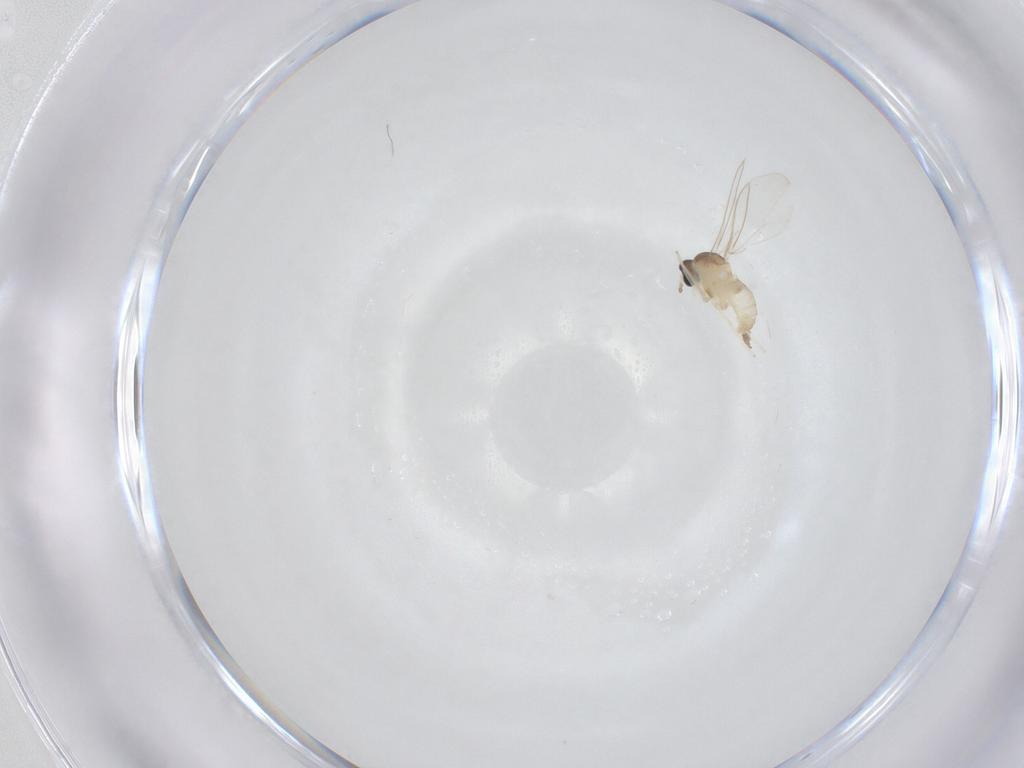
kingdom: Animalia
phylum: Arthropoda
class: Insecta
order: Diptera
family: Cecidomyiidae
